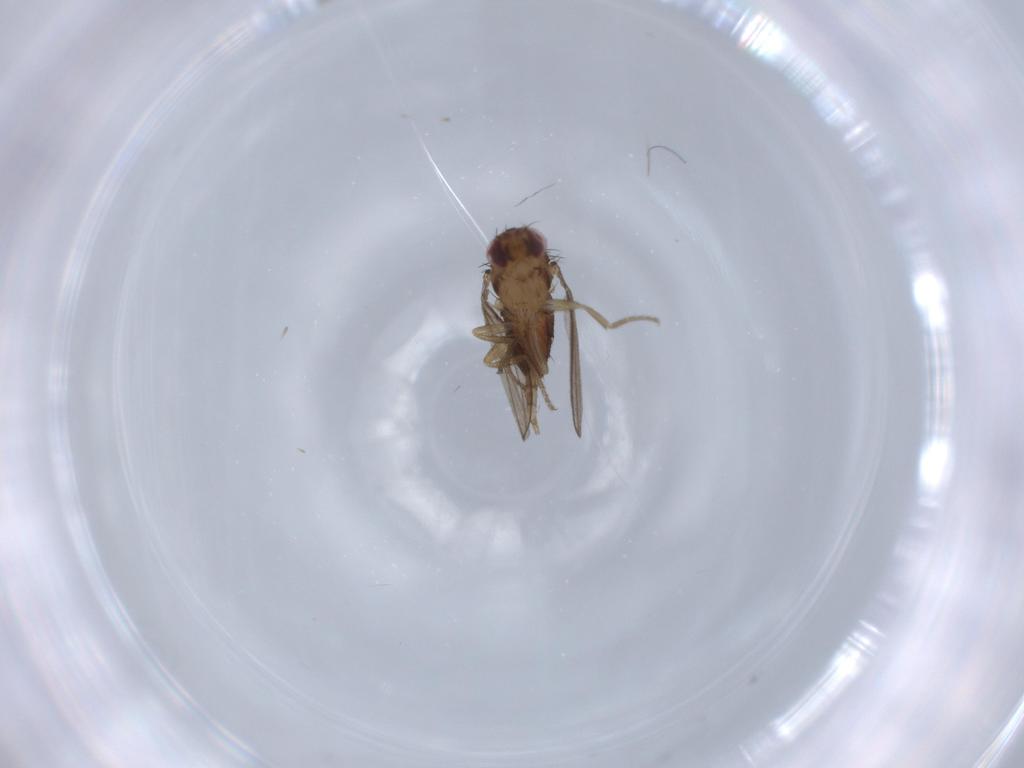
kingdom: Animalia
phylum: Arthropoda
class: Insecta
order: Diptera
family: Milichiidae
